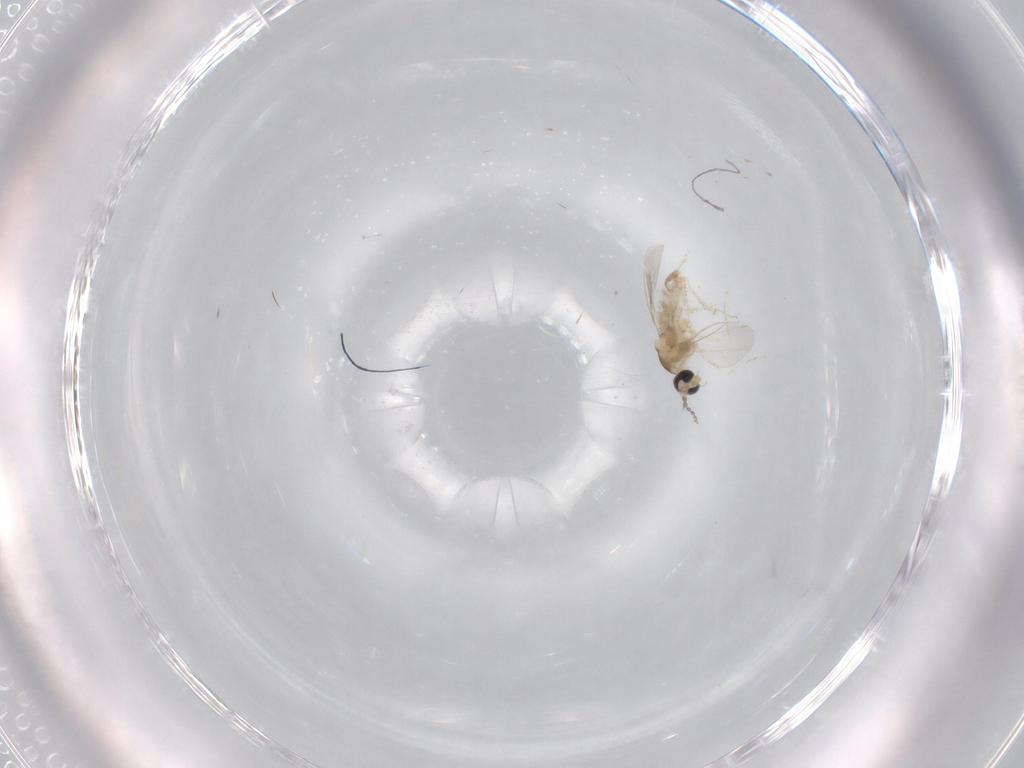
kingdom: Animalia
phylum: Arthropoda
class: Insecta
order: Diptera
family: Cecidomyiidae
